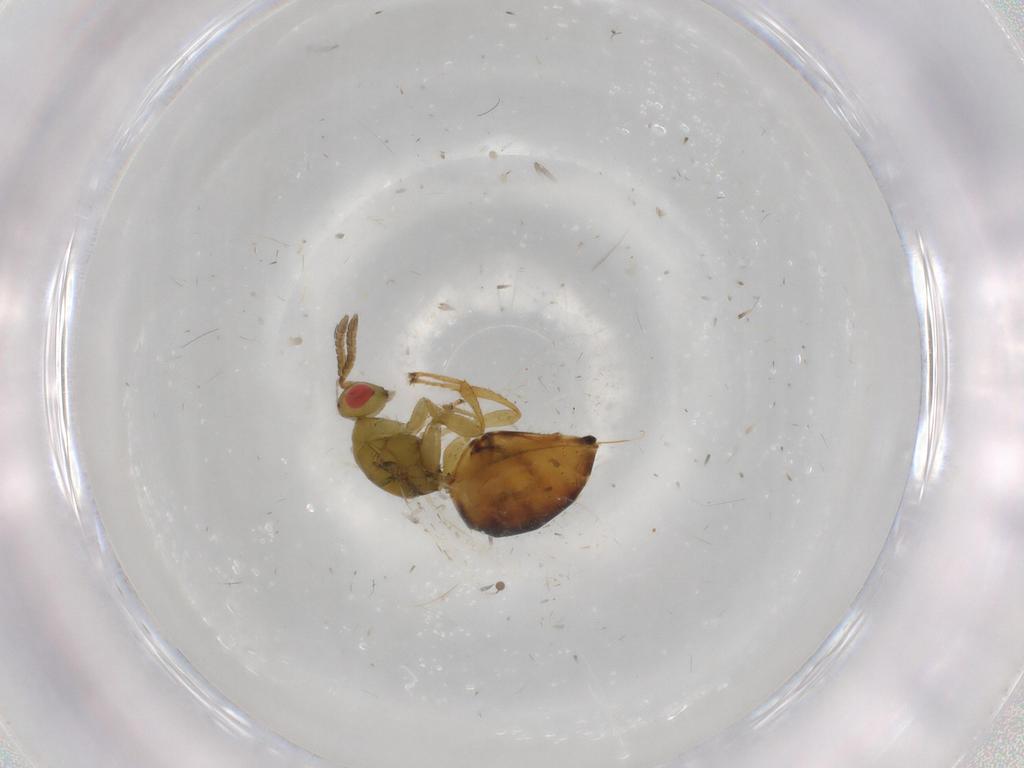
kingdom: Animalia
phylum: Arthropoda
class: Insecta
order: Hymenoptera
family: Agaonidae
